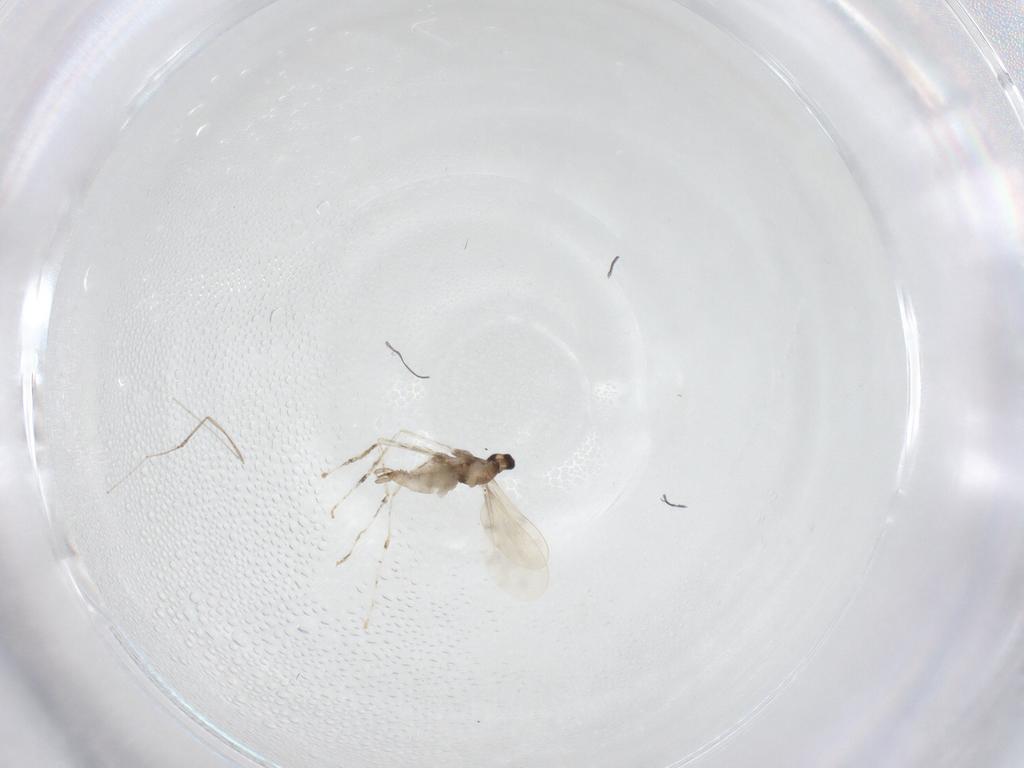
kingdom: Animalia
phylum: Arthropoda
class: Insecta
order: Diptera
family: Cecidomyiidae
